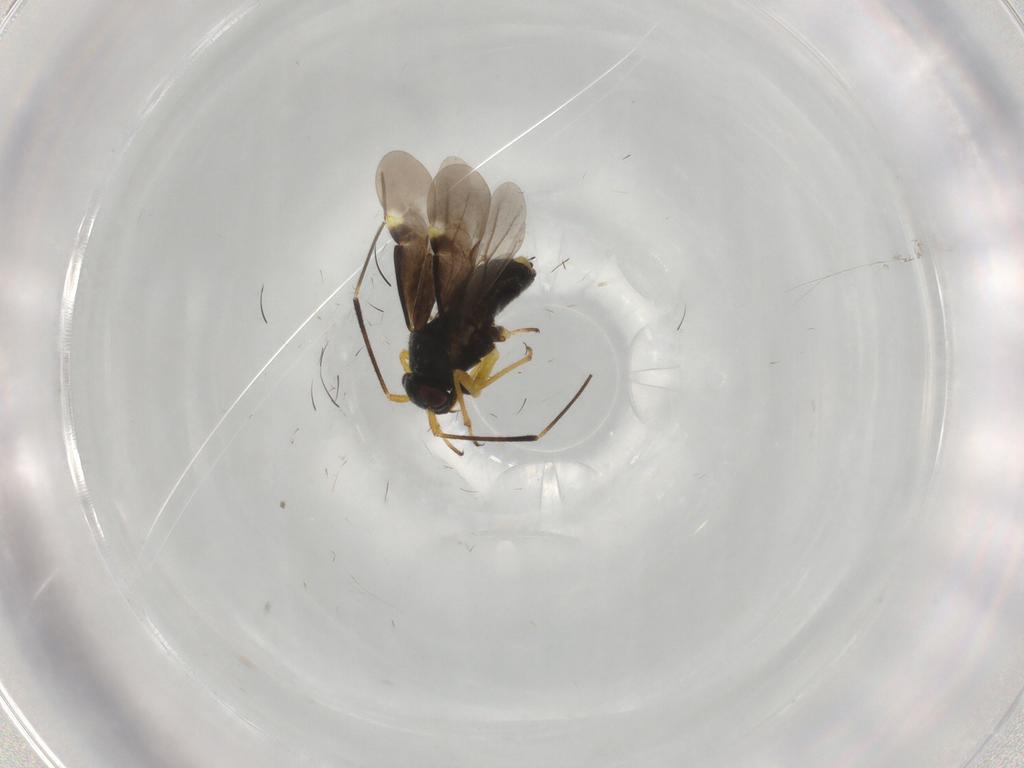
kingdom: Animalia
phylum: Arthropoda
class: Insecta
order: Hemiptera
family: Miridae
